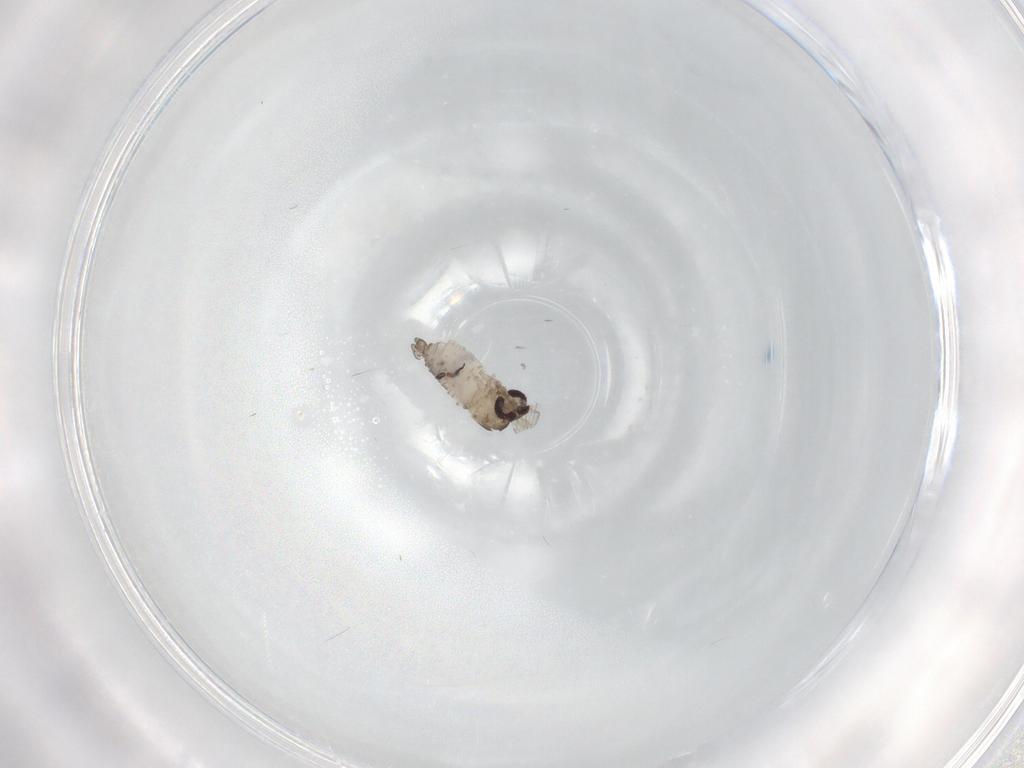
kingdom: Animalia
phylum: Arthropoda
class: Insecta
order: Diptera
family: Psychodidae
